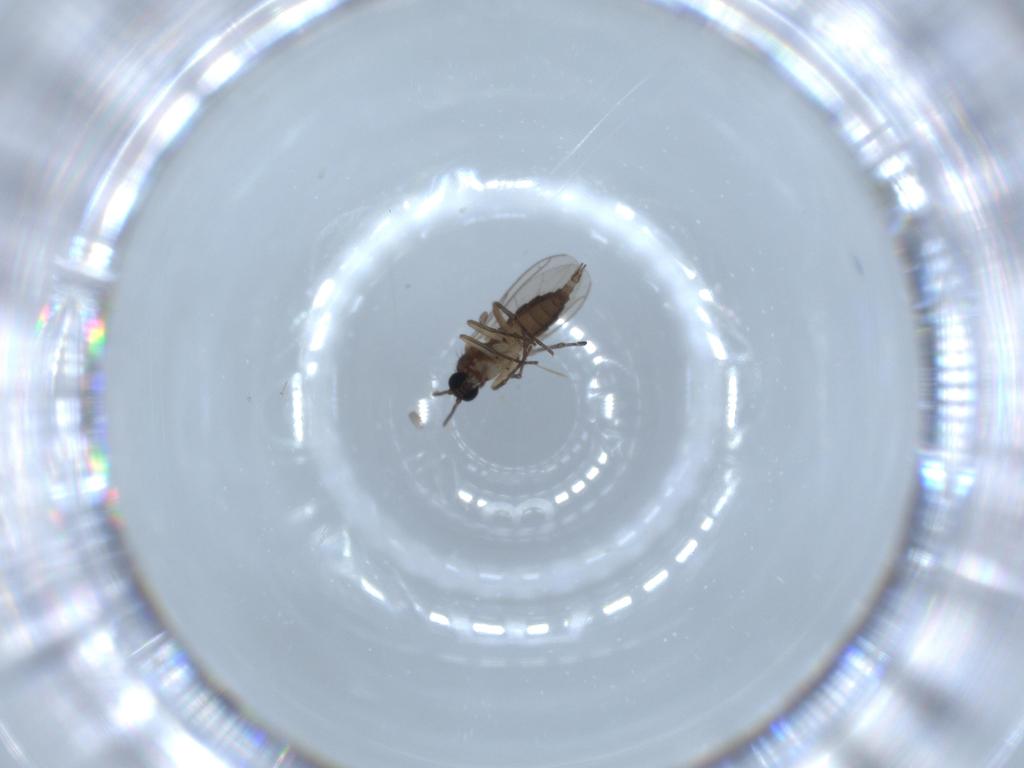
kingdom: Animalia
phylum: Arthropoda
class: Insecta
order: Diptera
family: Sciaridae
